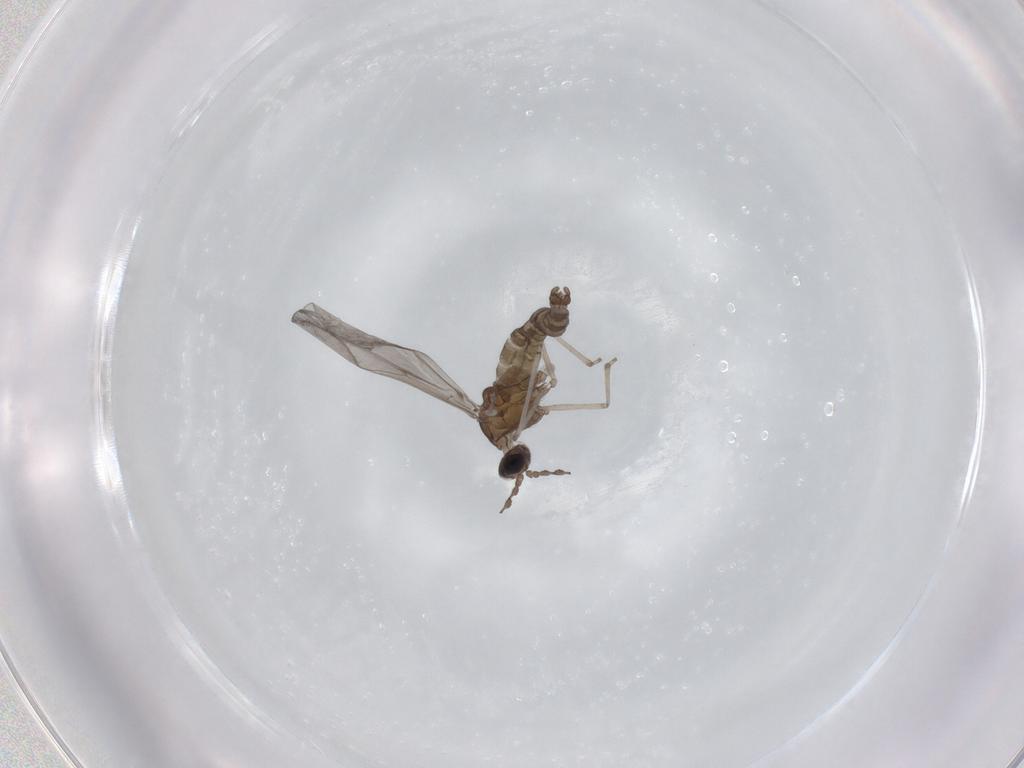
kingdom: Animalia
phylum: Arthropoda
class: Insecta
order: Diptera
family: Cecidomyiidae
